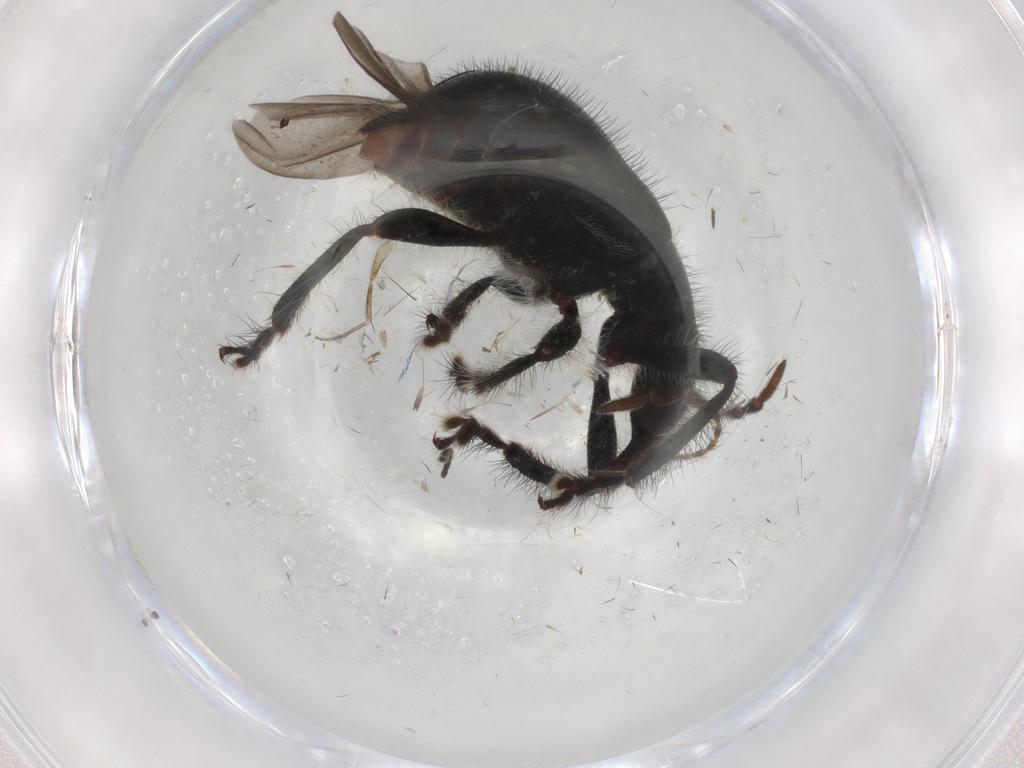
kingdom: Animalia
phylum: Arthropoda
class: Insecta
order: Coleoptera
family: Attelabidae
